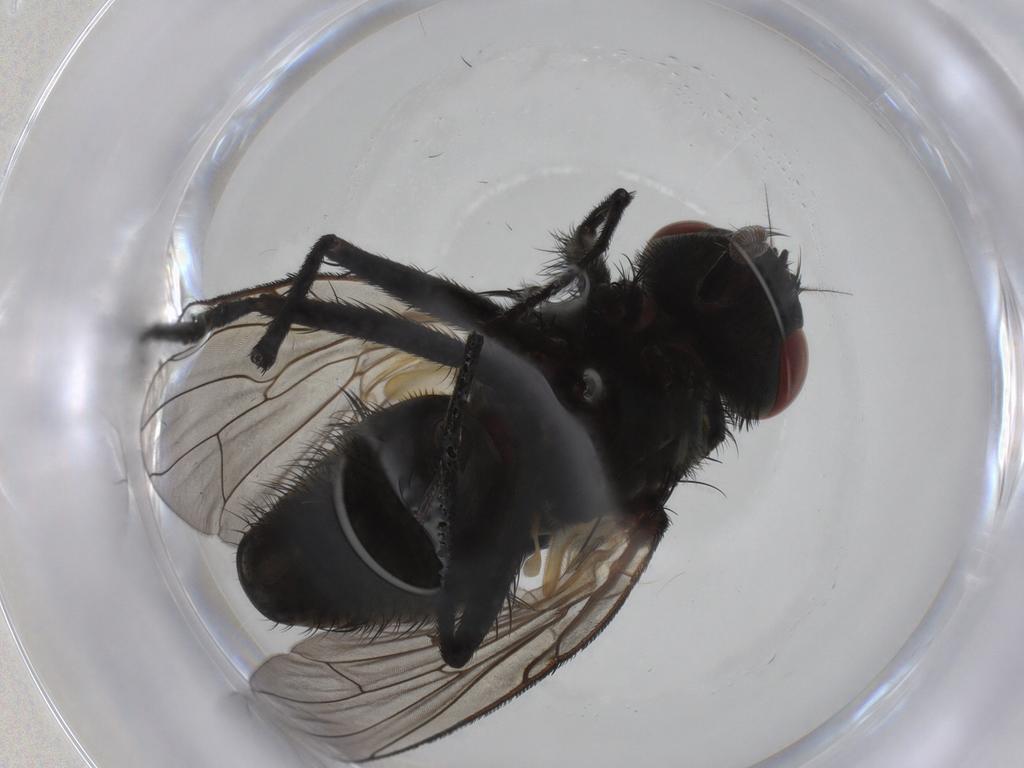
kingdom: Animalia
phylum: Arthropoda
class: Insecta
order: Diptera
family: Muscidae
